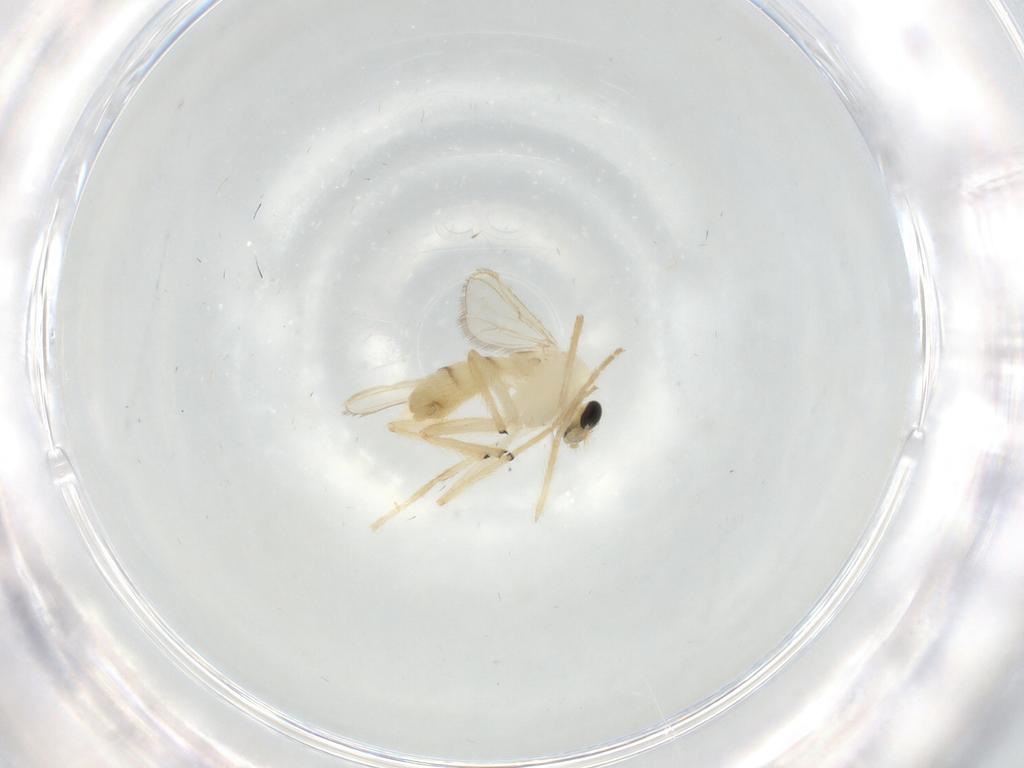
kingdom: Animalia
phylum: Arthropoda
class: Insecta
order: Diptera
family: Chironomidae
